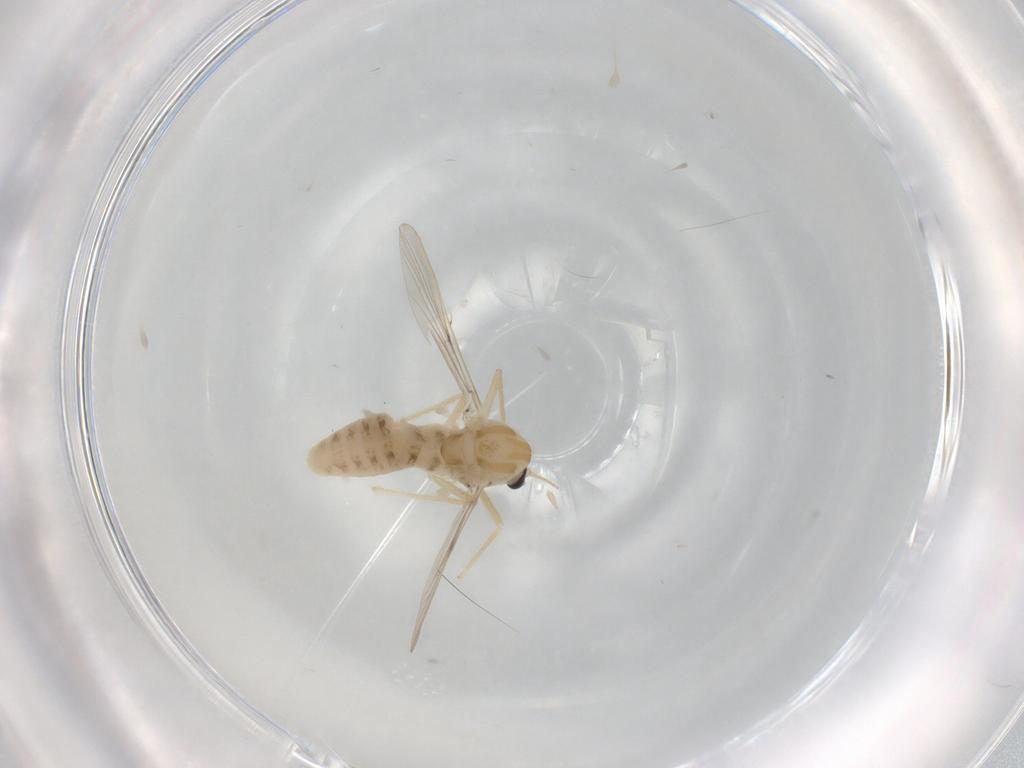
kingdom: Animalia
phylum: Arthropoda
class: Insecta
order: Diptera
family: Chironomidae
